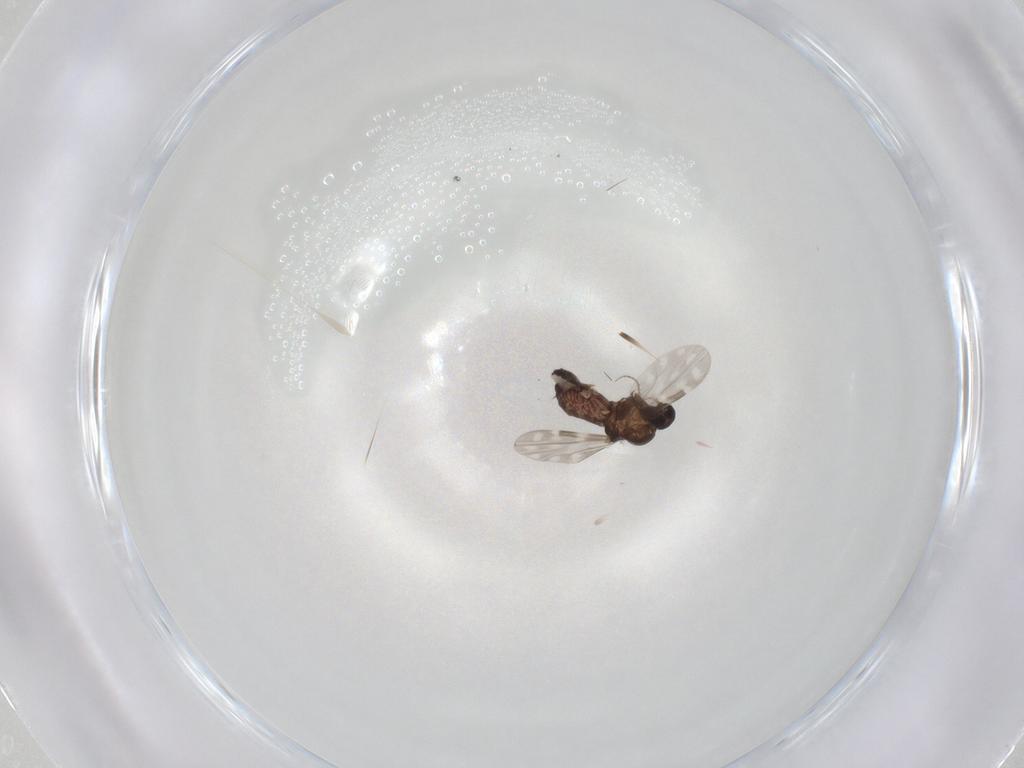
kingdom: Animalia
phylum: Arthropoda
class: Insecta
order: Diptera
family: Ceratopogonidae
